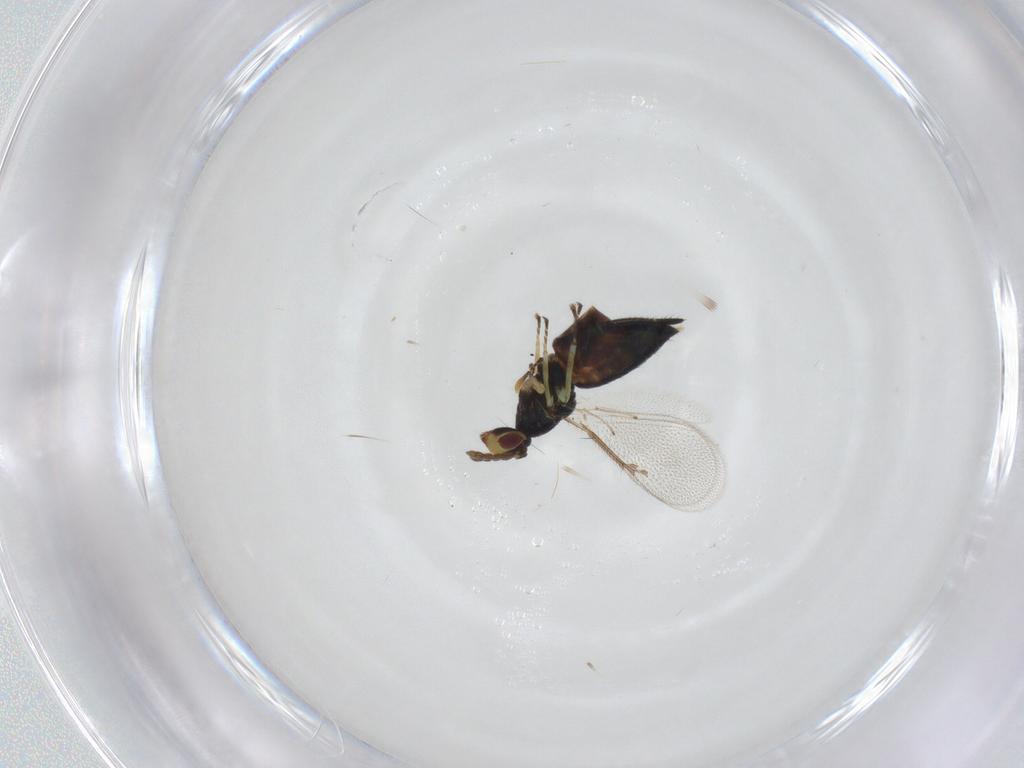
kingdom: Animalia
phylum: Arthropoda
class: Insecta
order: Hymenoptera
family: Eulophidae
